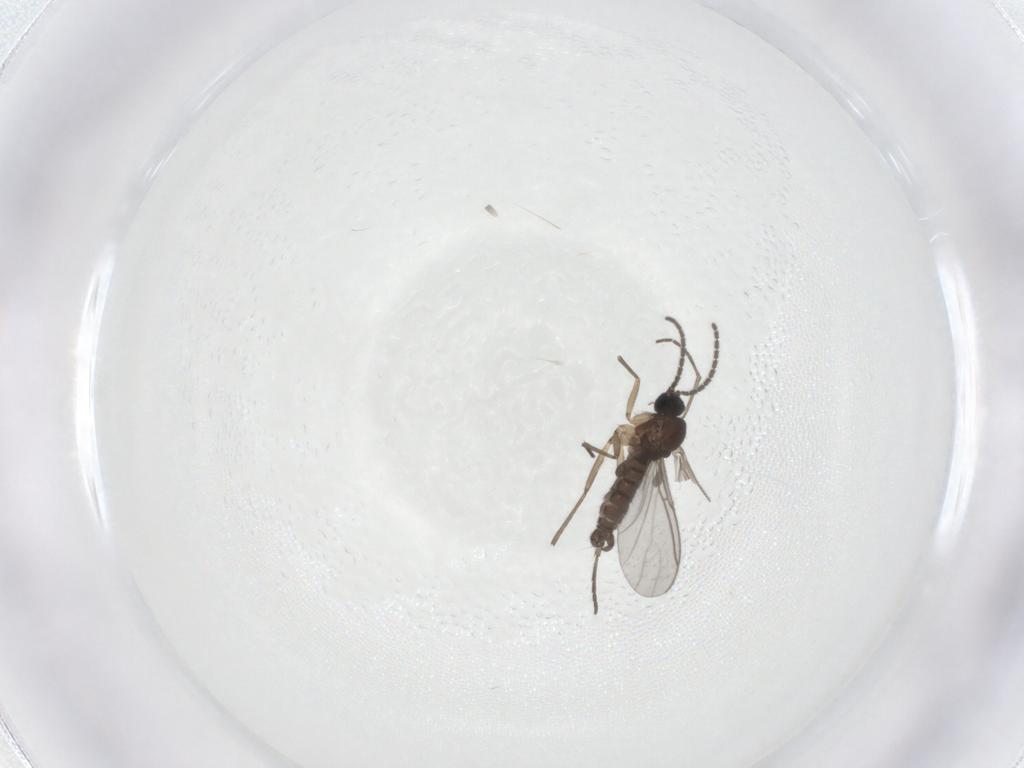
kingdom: Animalia
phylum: Arthropoda
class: Insecta
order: Diptera
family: Sciaridae
